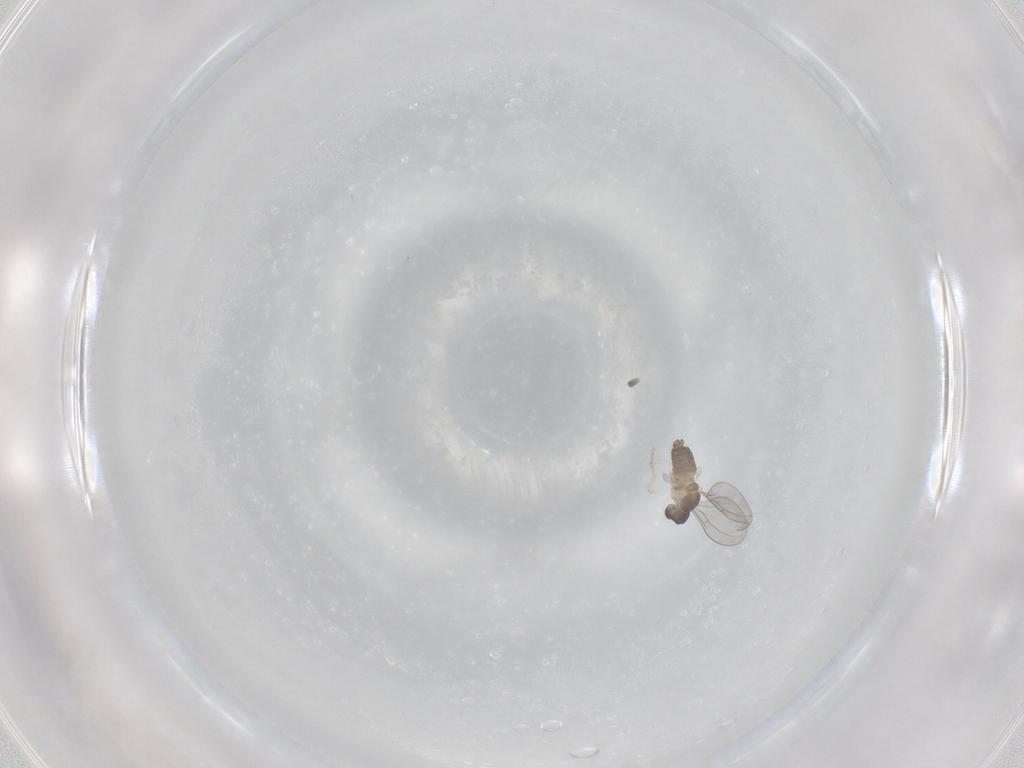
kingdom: Animalia
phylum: Arthropoda
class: Insecta
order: Diptera
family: Cecidomyiidae
